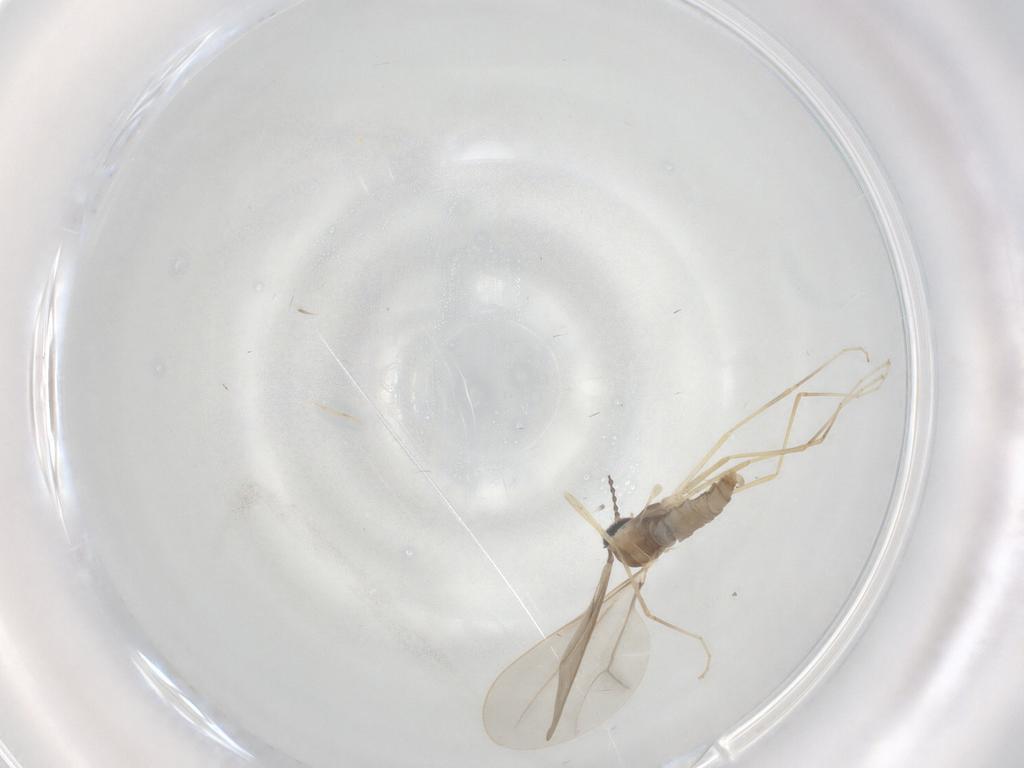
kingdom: Animalia
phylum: Arthropoda
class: Insecta
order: Diptera
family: Cecidomyiidae
